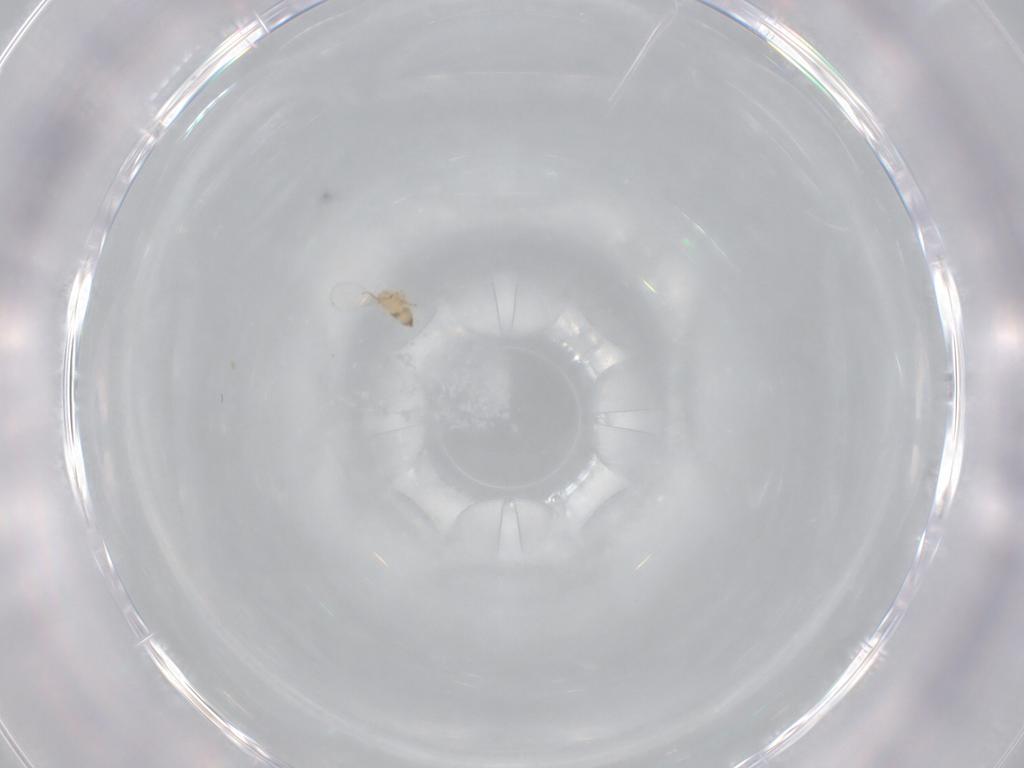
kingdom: Animalia
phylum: Arthropoda
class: Insecta
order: Hymenoptera
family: Trichogrammatidae
